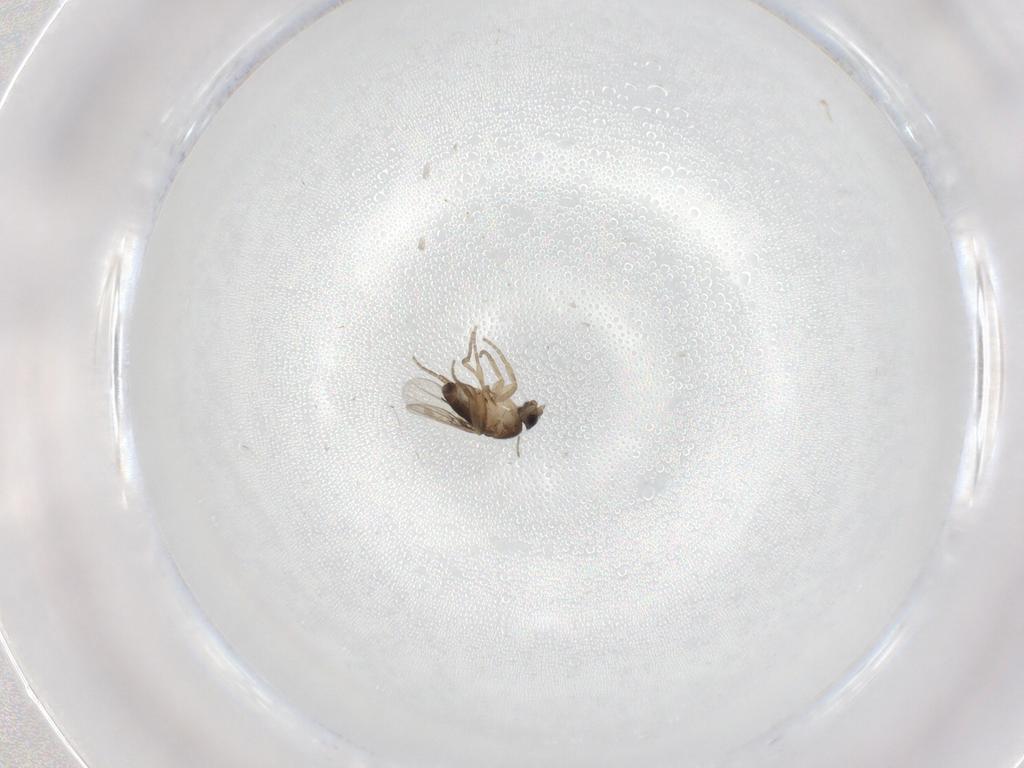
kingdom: Animalia
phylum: Arthropoda
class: Insecta
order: Diptera
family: Phoridae
